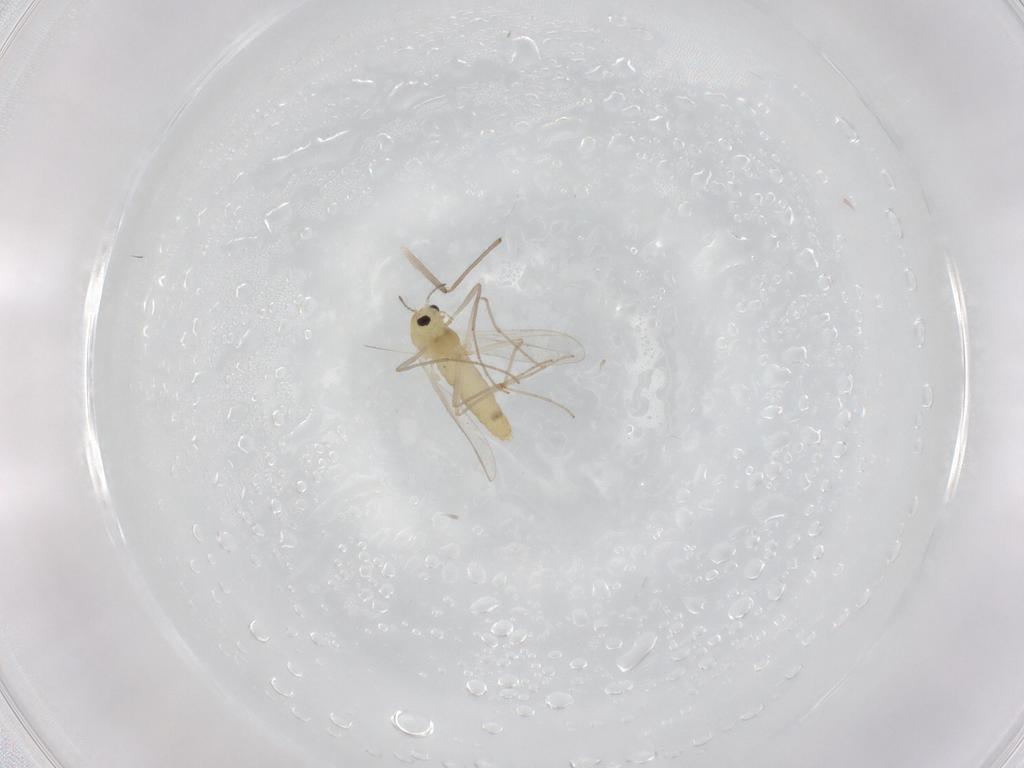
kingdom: Animalia
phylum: Arthropoda
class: Insecta
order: Diptera
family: Chironomidae
